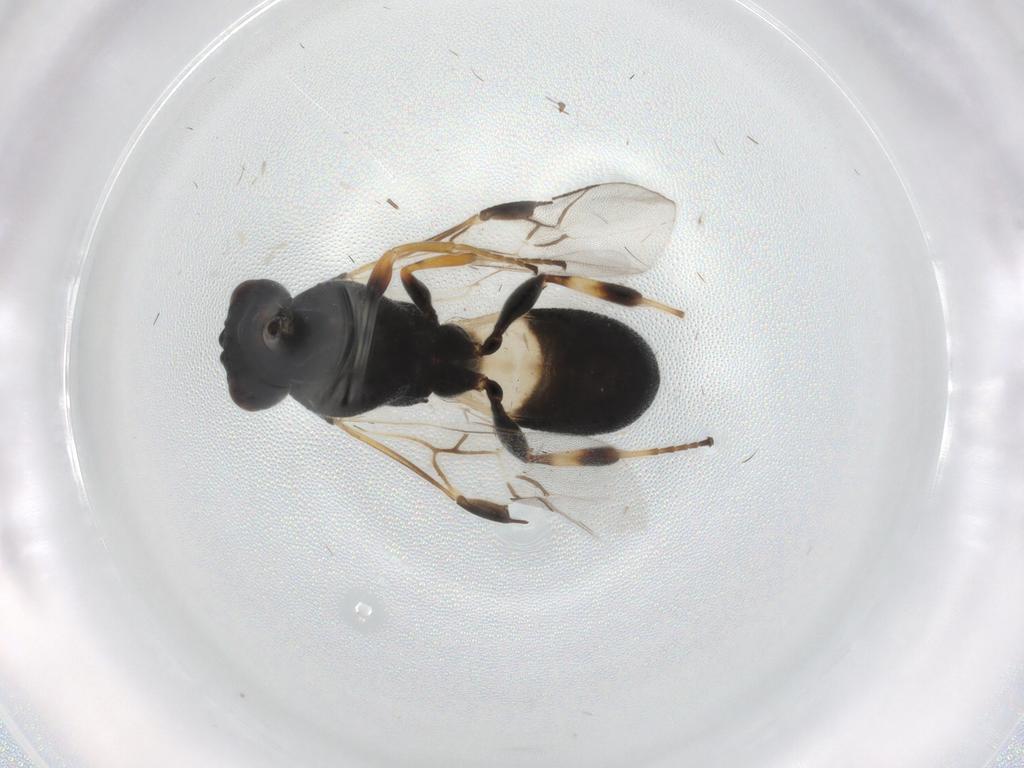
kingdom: Animalia
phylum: Arthropoda
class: Insecta
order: Hymenoptera
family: Braconidae
